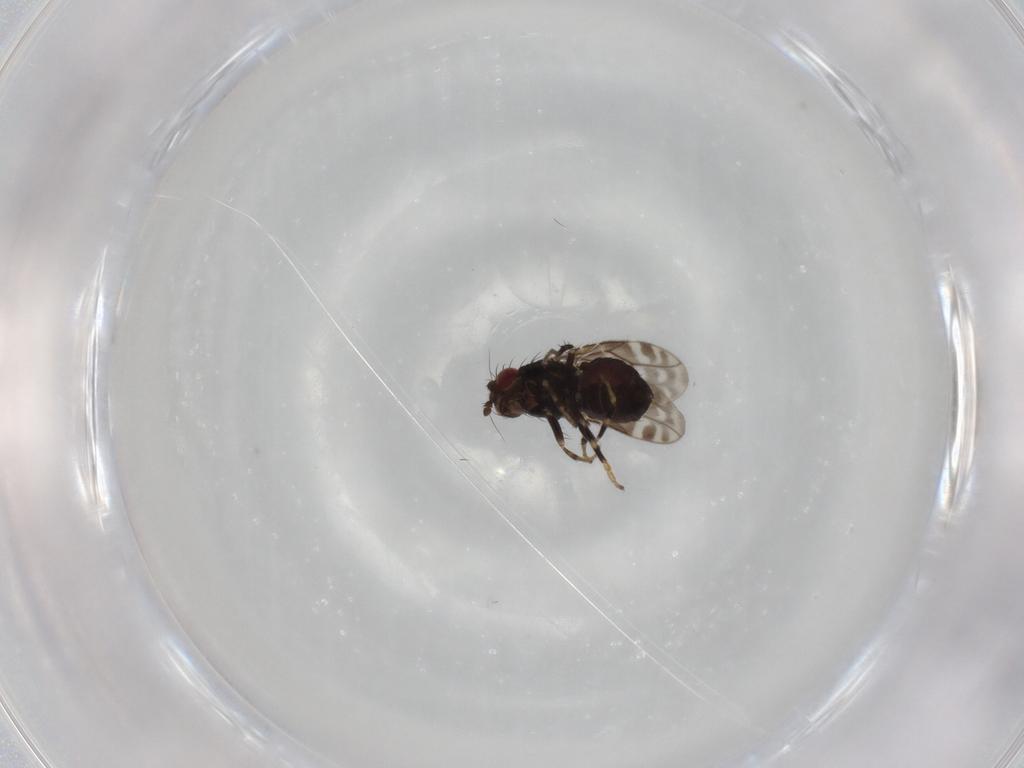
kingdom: Animalia
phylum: Arthropoda
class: Insecta
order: Diptera
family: Sphaeroceridae
